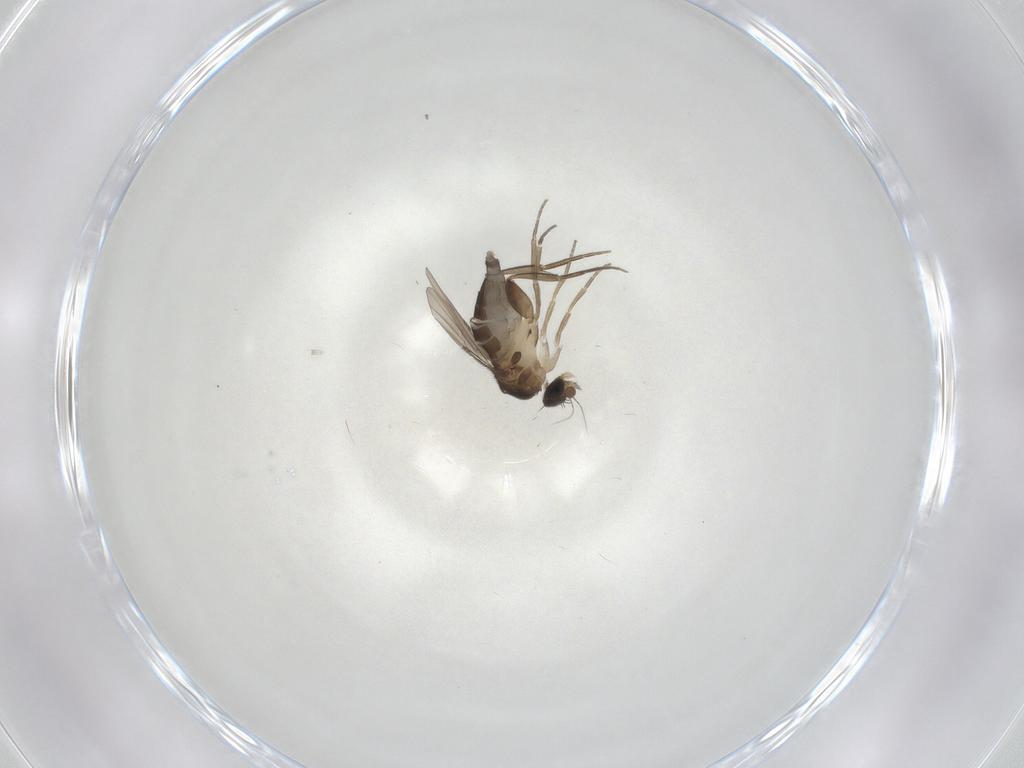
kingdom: Animalia
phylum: Arthropoda
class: Insecta
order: Diptera
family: Phoridae
